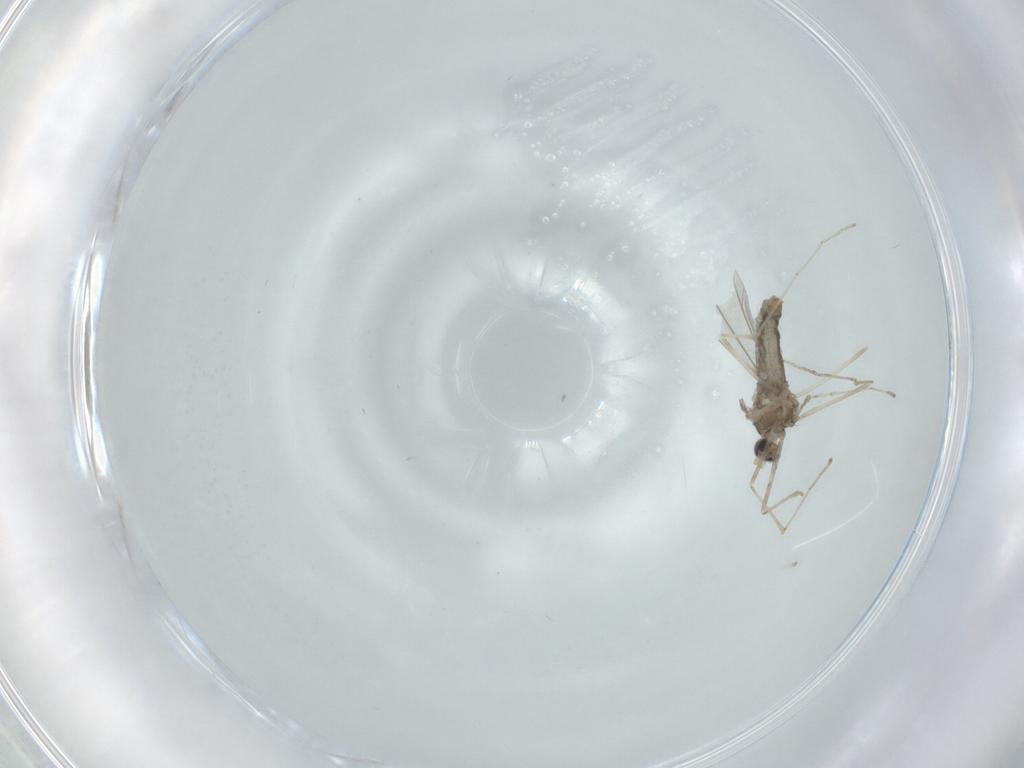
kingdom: Animalia
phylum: Arthropoda
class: Insecta
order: Diptera
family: Cecidomyiidae
